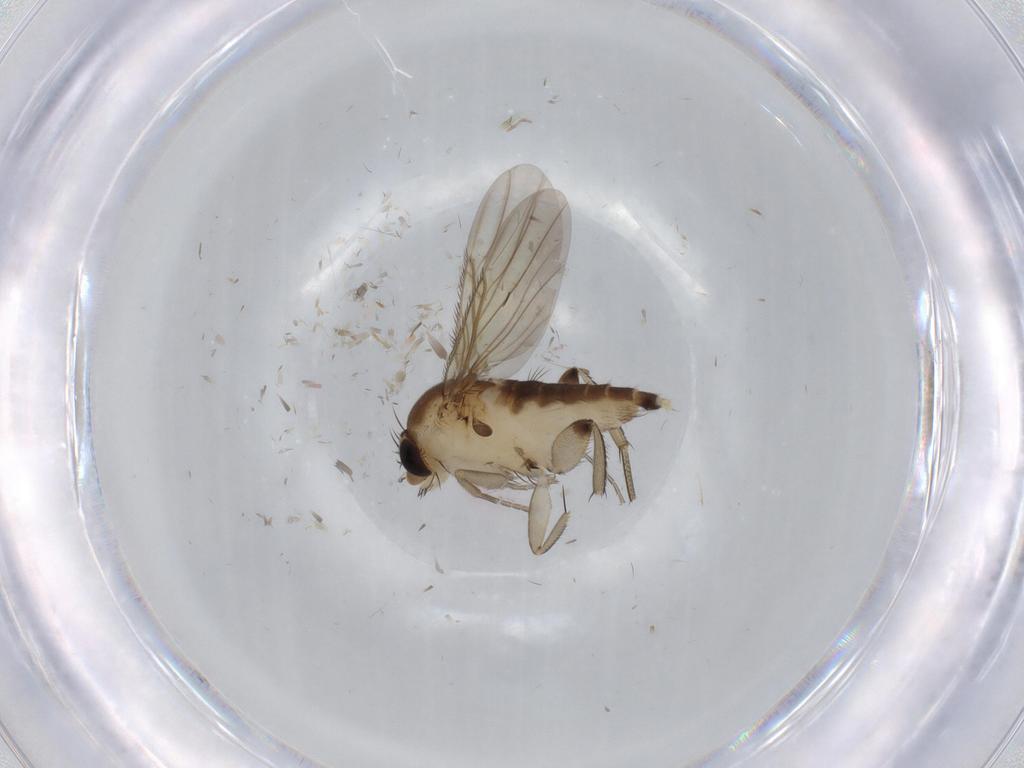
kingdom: Animalia
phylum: Arthropoda
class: Insecta
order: Diptera
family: Phoridae
